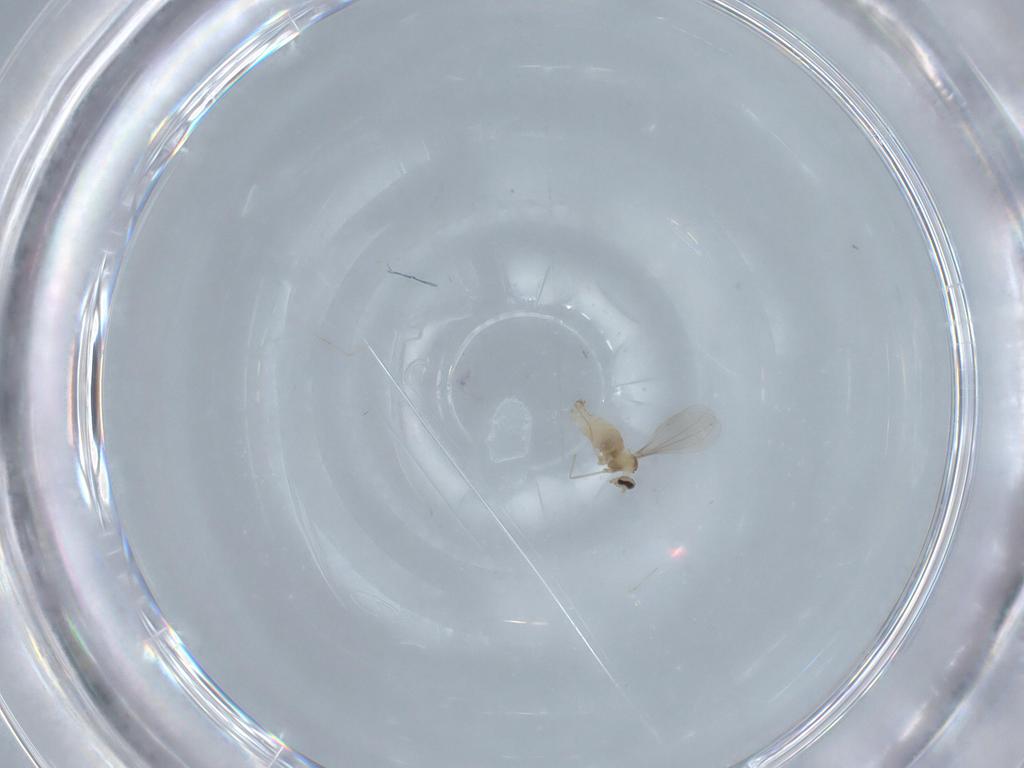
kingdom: Animalia
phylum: Arthropoda
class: Insecta
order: Diptera
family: Cecidomyiidae
